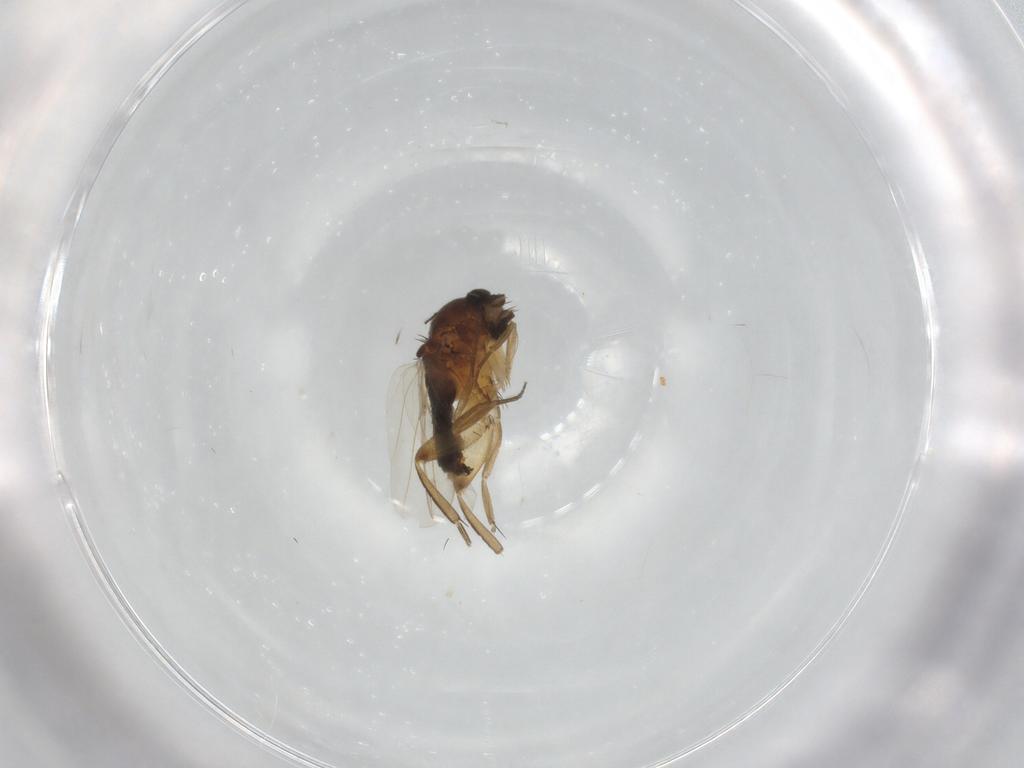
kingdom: Animalia
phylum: Arthropoda
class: Insecta
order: Diptera
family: Phoridae
